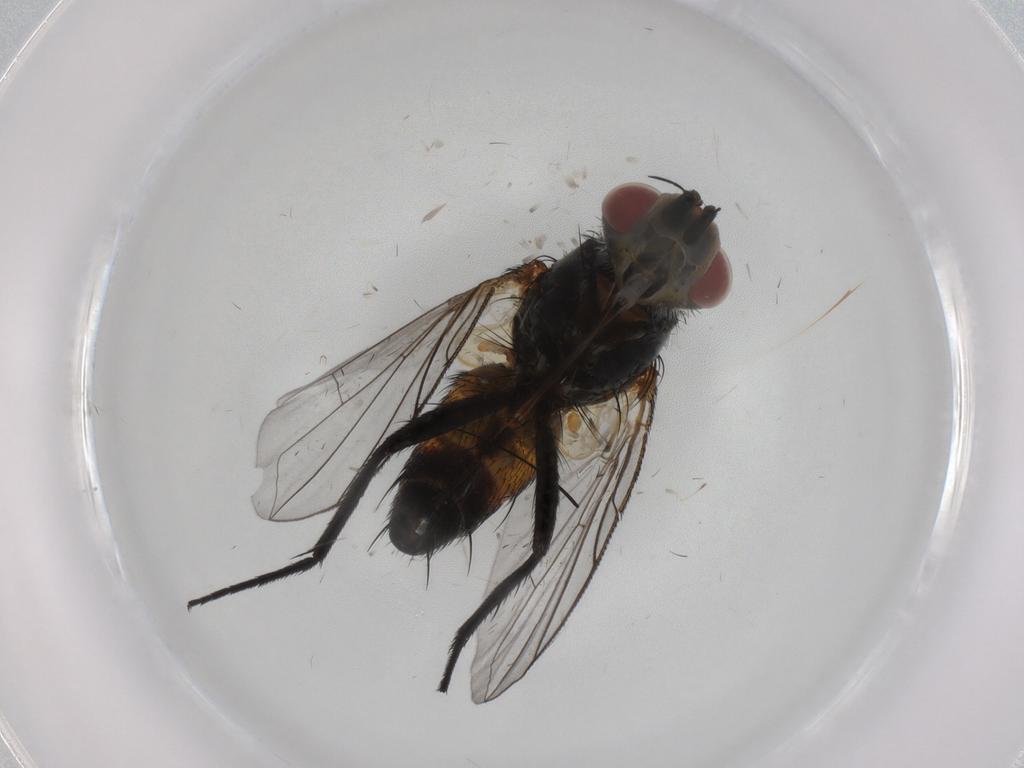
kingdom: Animalia
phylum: Arthropoda
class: Insecta
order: Diptera
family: Tachinidae
